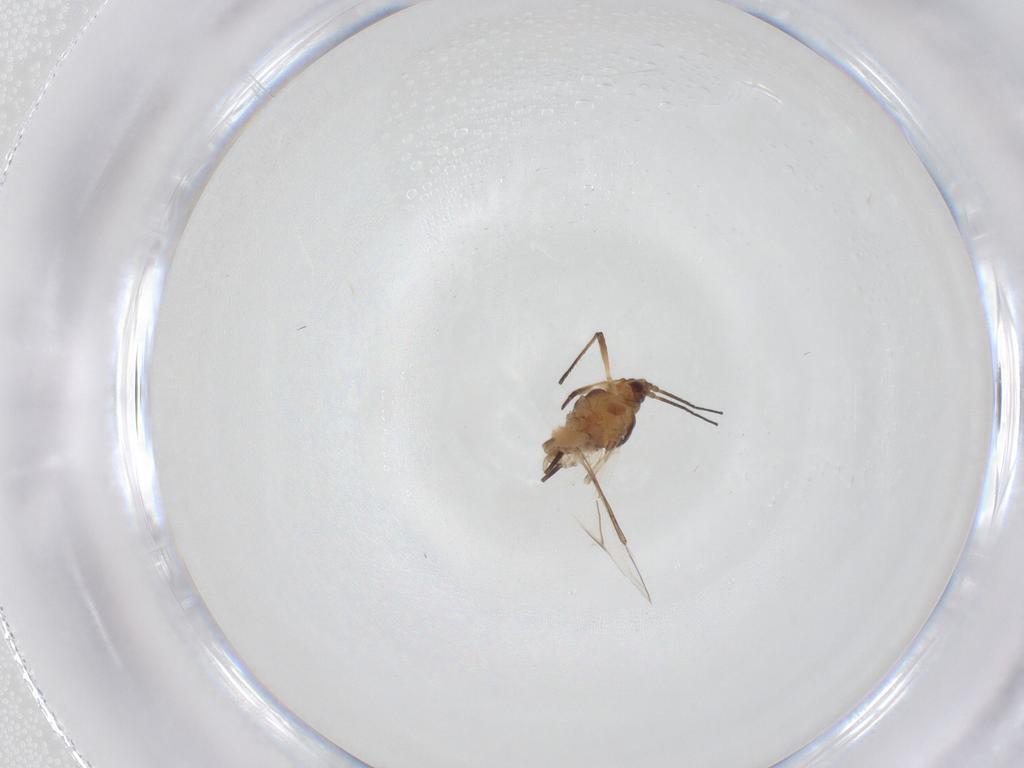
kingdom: Animalia
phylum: Arthropoda
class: Insecta
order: Hemiptera
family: Aphididae
